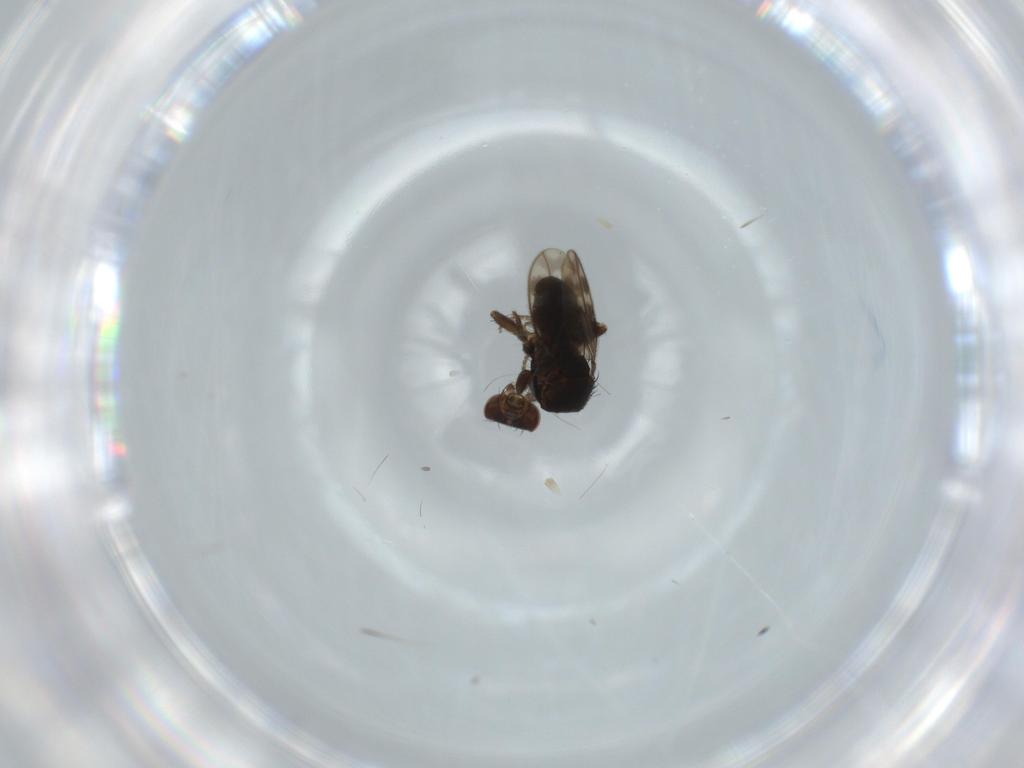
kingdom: Animalia
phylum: Arthropoda
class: Insecta
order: Diptera
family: Sphaeroceridae
